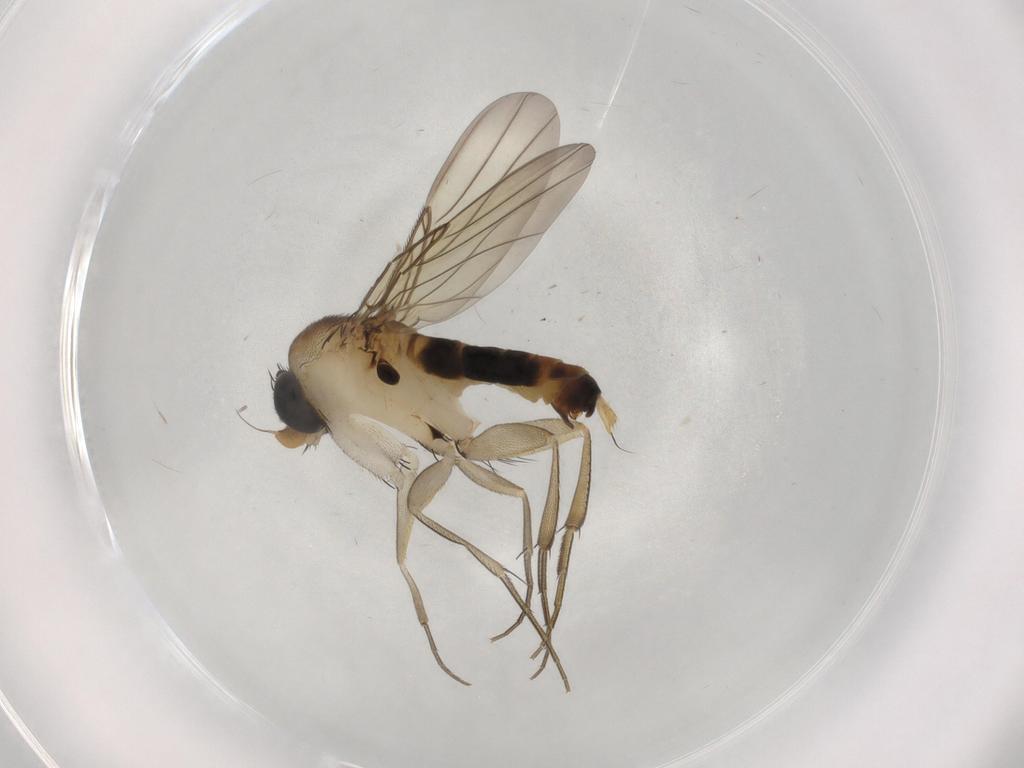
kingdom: Animalia
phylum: Arthropoda
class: Insecta
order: Diptera
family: Phoridae
